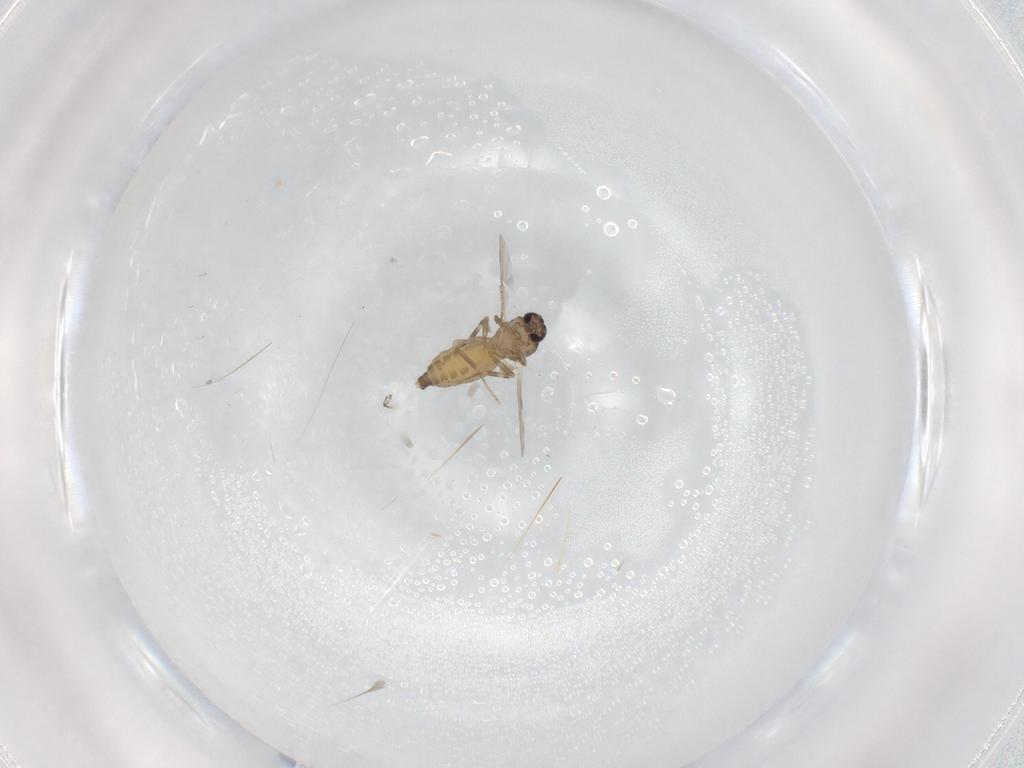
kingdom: Animalia
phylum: Arthropoda
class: Insecta
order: Diptera
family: Ceratopogonidae
